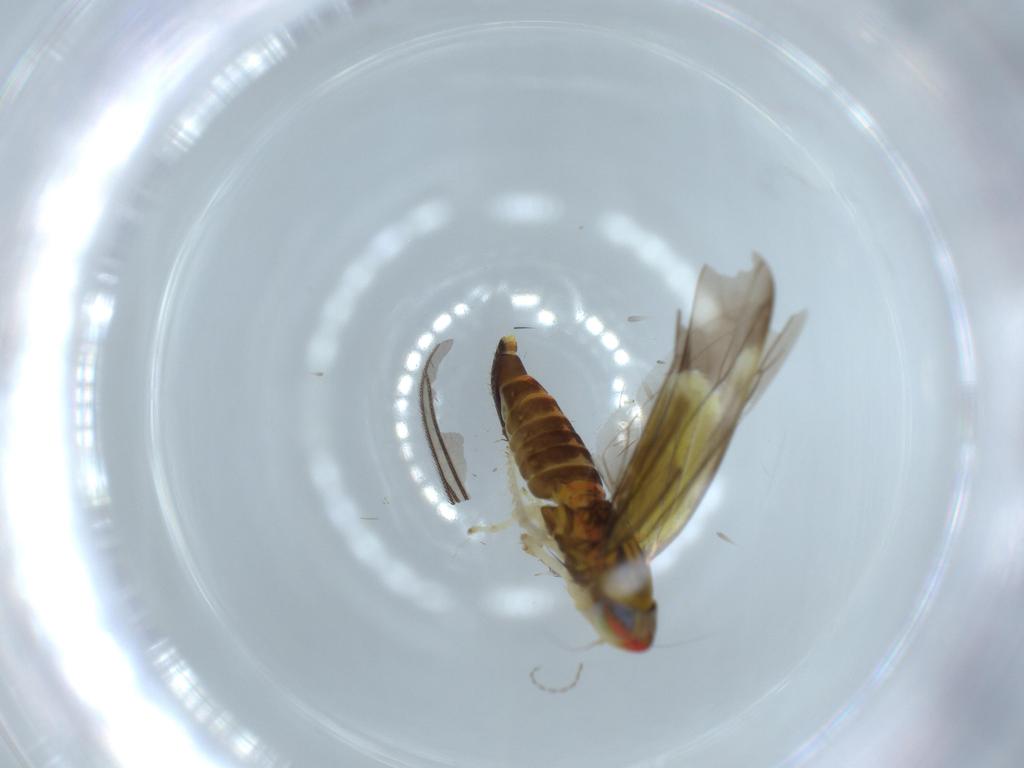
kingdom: Animalia
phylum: Arthropoda
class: Insecta
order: Hemiptera
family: Cicadellidae
